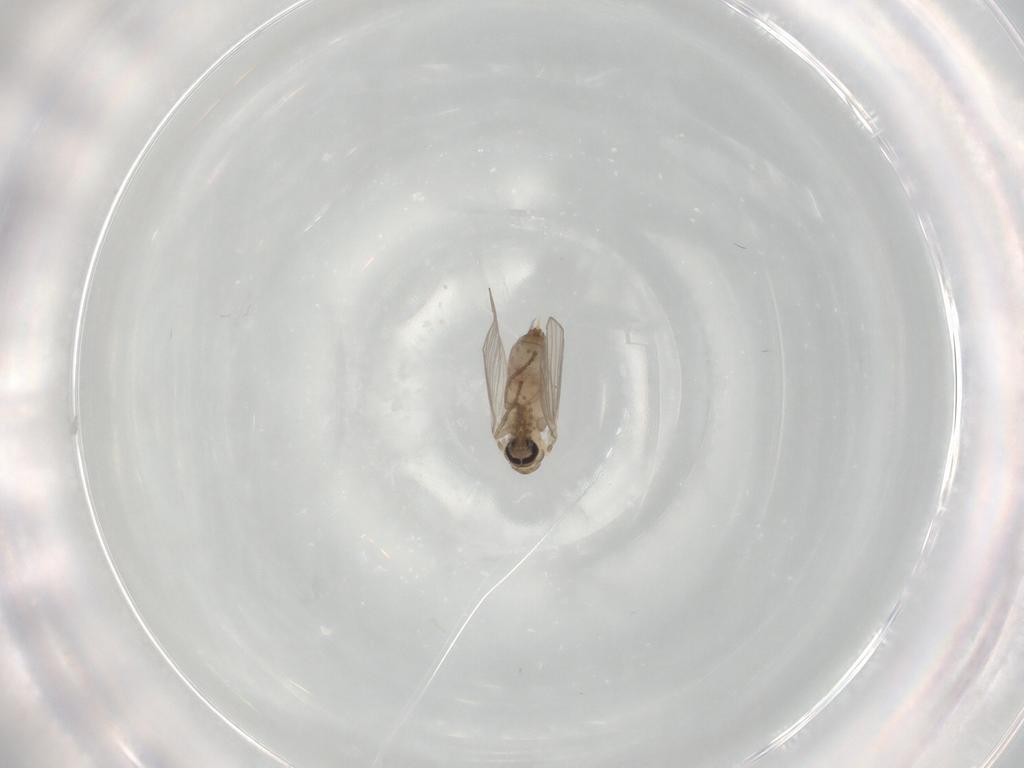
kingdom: Animalia
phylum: Arthropoda
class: Insecta
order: Diptera
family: Psychodidae
